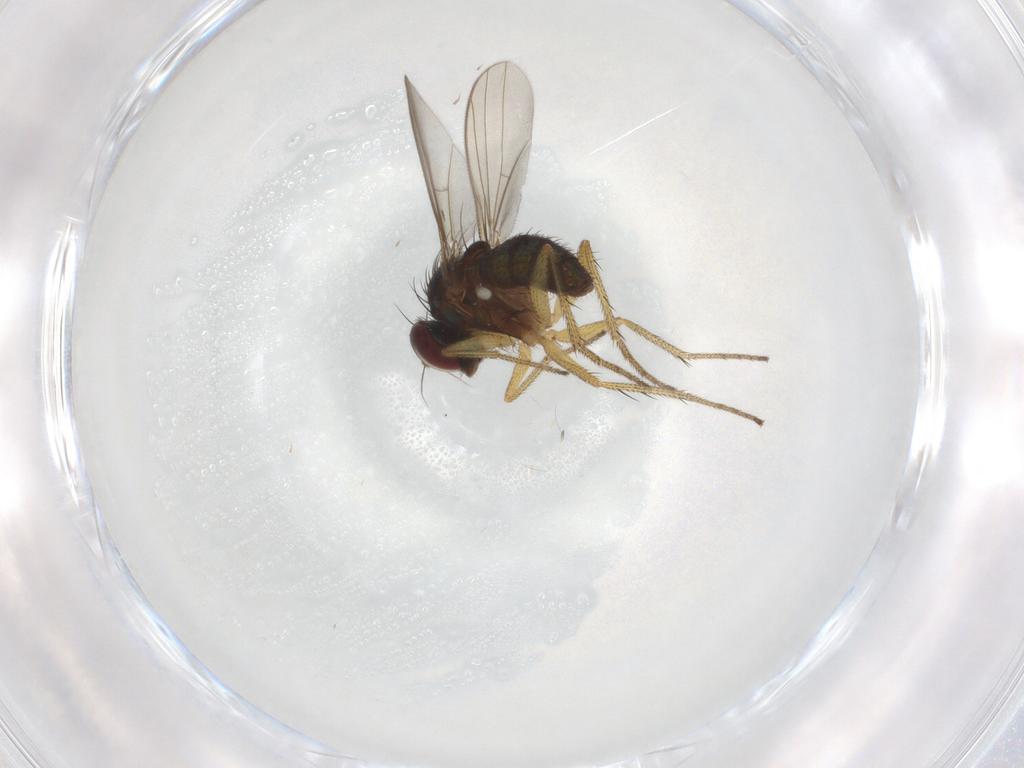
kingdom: Animalia
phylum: Arthropoda
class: Insecta
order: Diptera
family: Dolichopodidae
